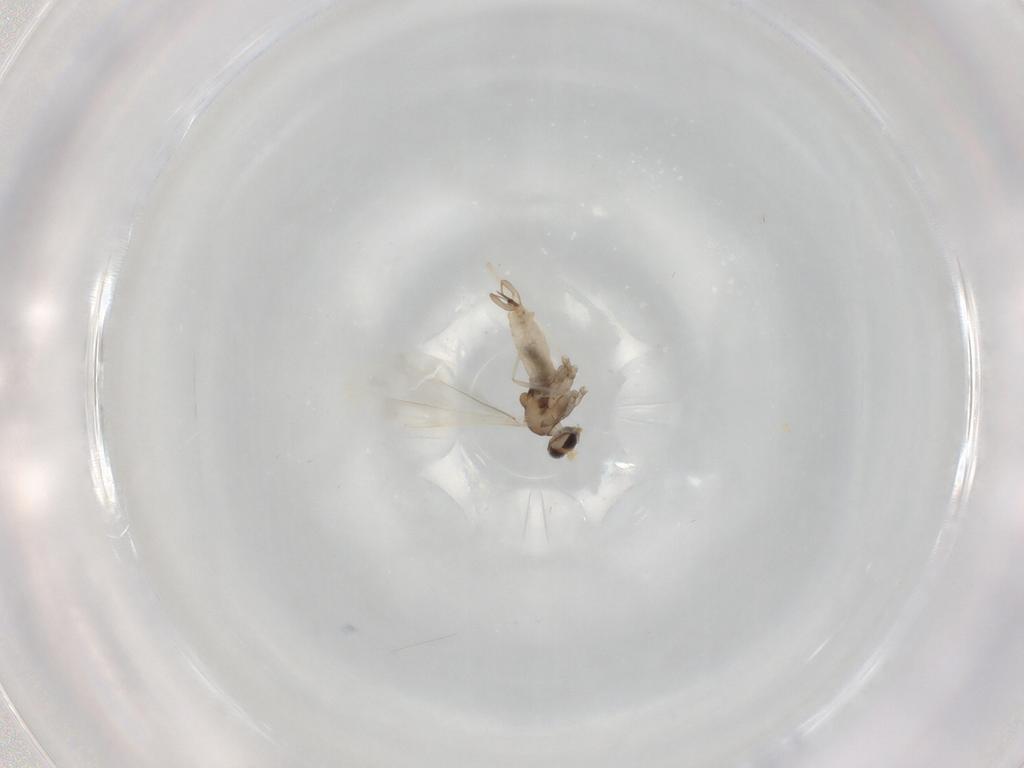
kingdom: Animalia
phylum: Arthropoda
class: Insecta
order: Diptera
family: Cecidomyiidae
